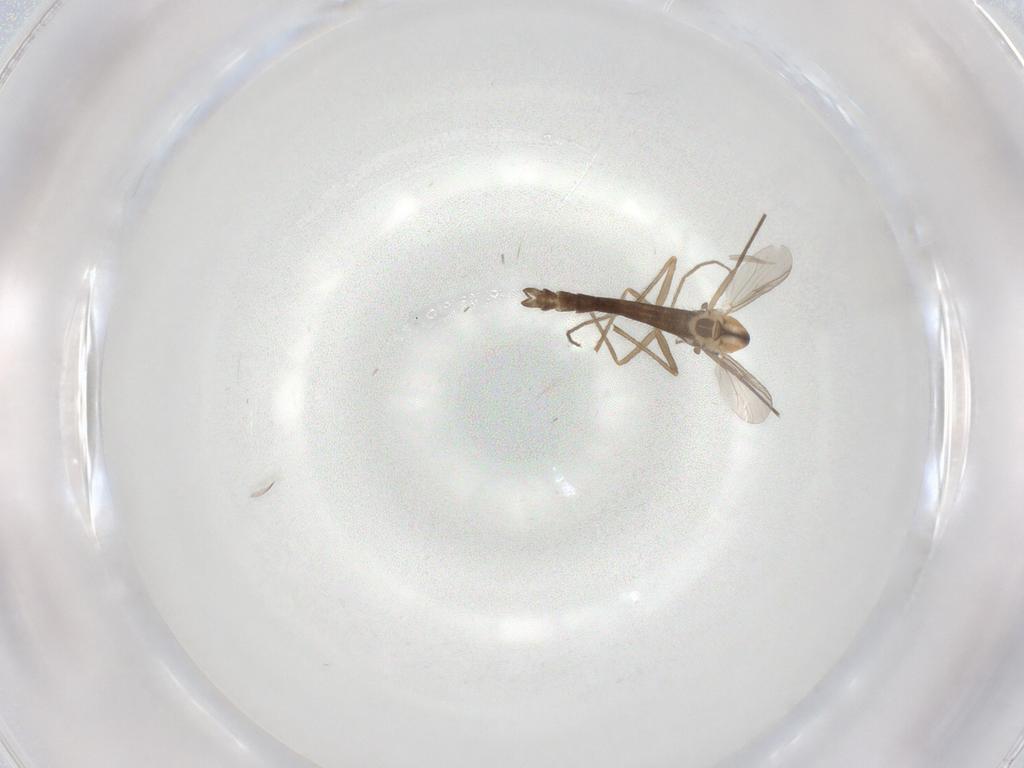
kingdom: Animalia
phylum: Arthropoda
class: Insecta
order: Diptera
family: Chironomidae
